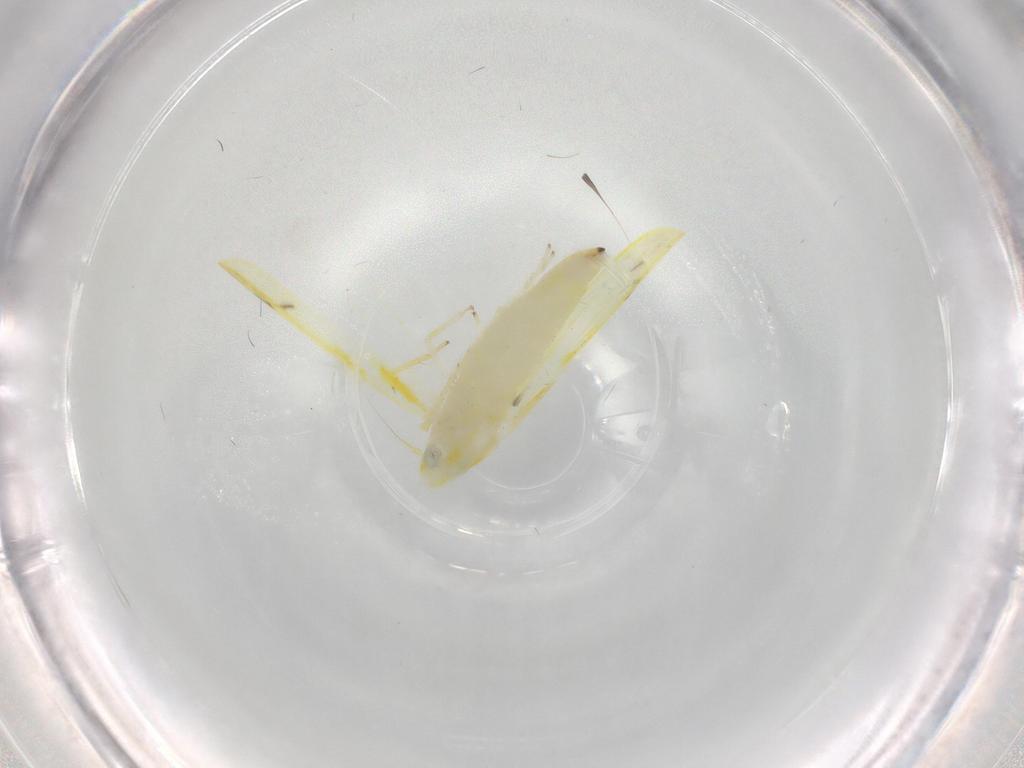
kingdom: Animalia
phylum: Arthropoda
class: Insecta
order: Hemiptera
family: Cicadellidae
